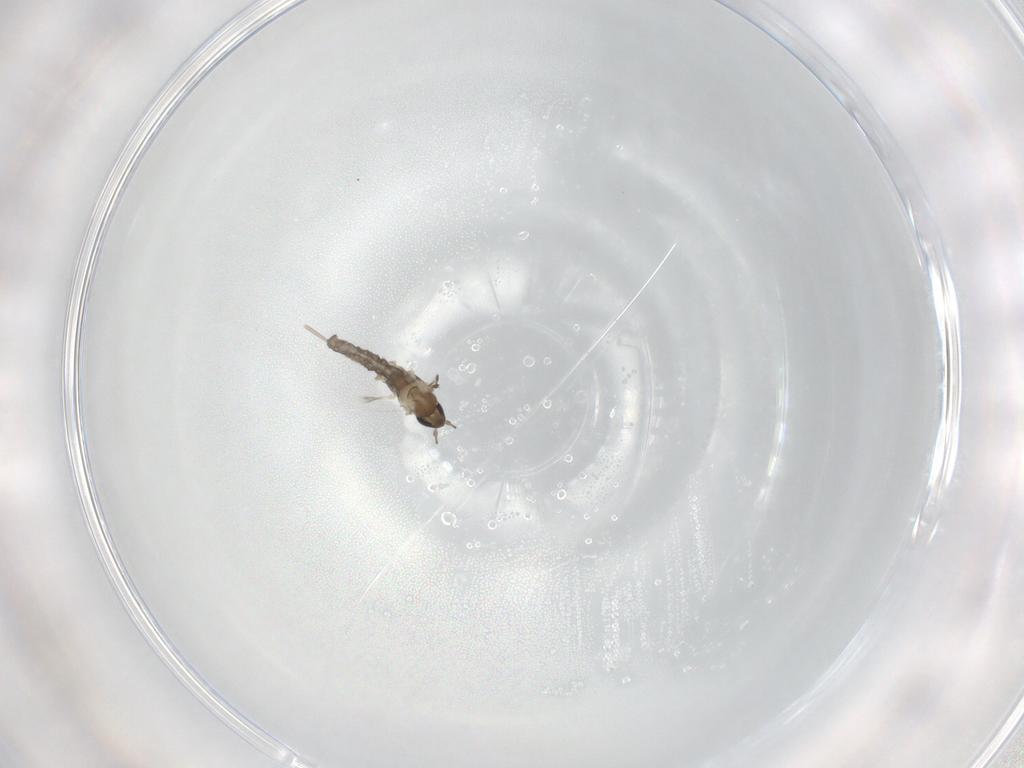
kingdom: Animalia
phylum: Arthropoda
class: Insecta
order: Diptera
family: Cecidomyiidae
